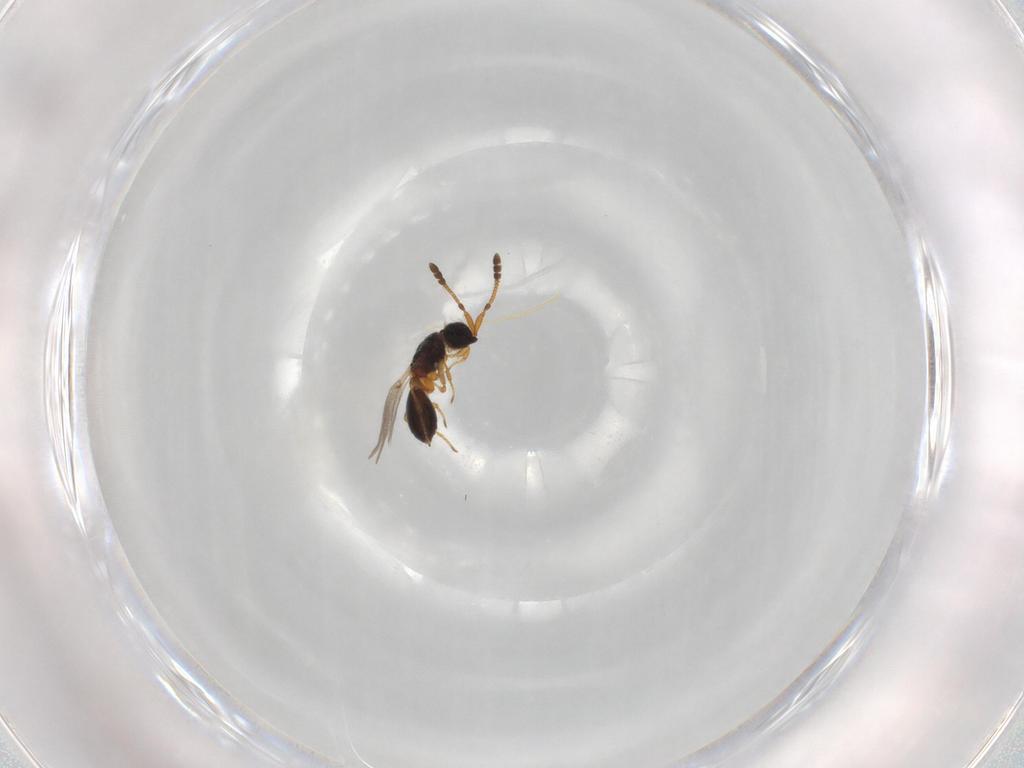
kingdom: Animalia
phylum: Arthropoda
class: Insecta
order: Hymenoptera
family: Diapriidae
